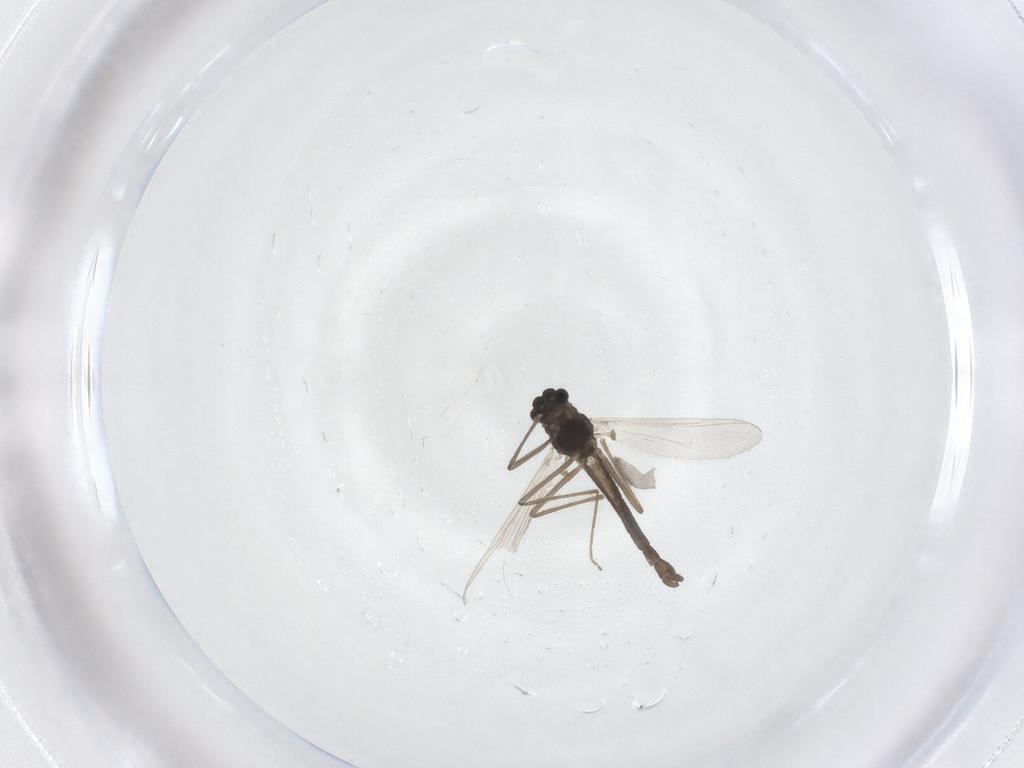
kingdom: Animalia
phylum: Arthropoda
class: Insecta
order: Diptera
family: Chironomidae
